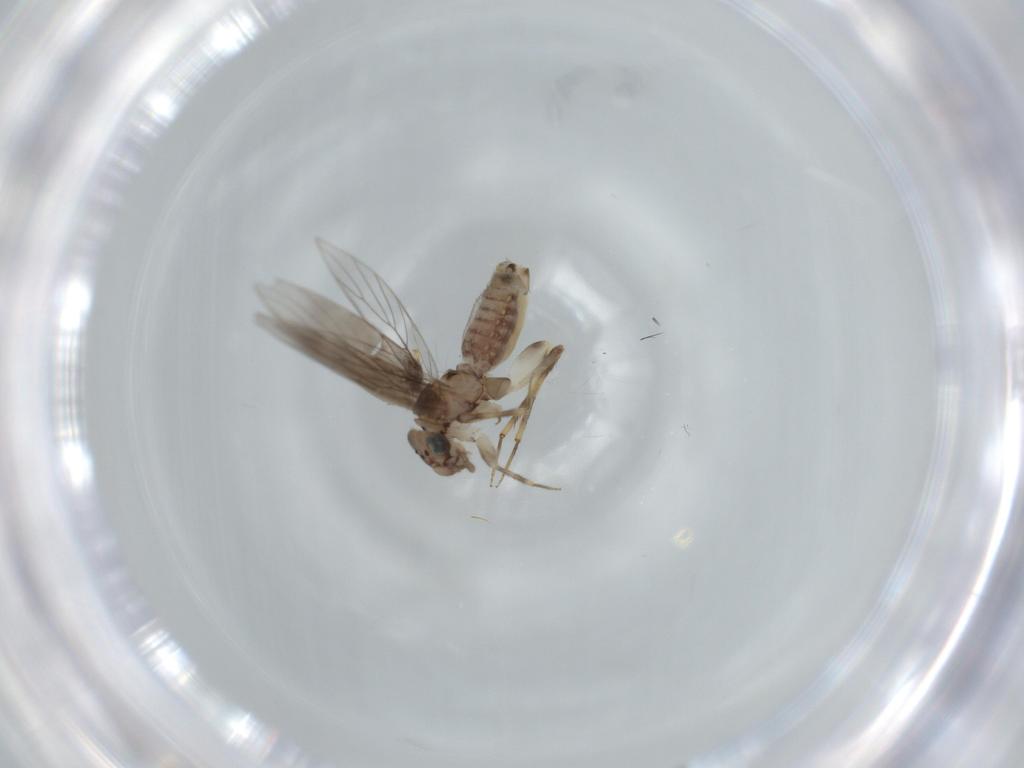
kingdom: Animalia
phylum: Arthropoda
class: Insecta
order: Psocodea
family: Lepidopsocidae
